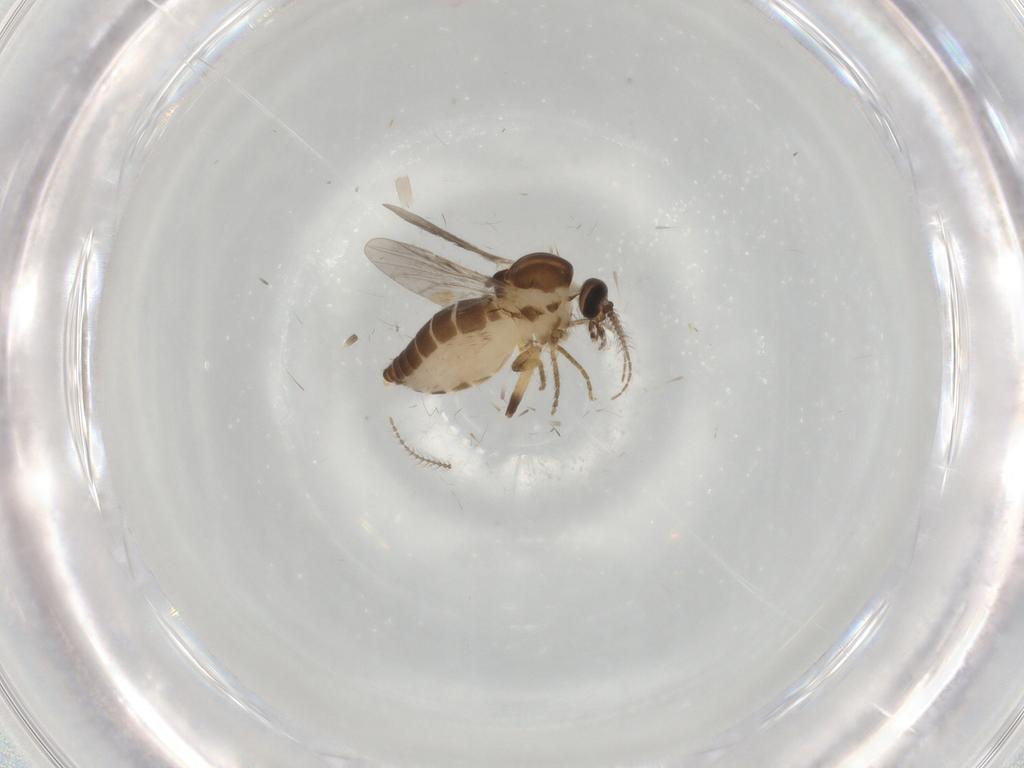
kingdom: Animalia
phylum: Arthropoda
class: Insecta
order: Diptera
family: Ceratopogonidae
